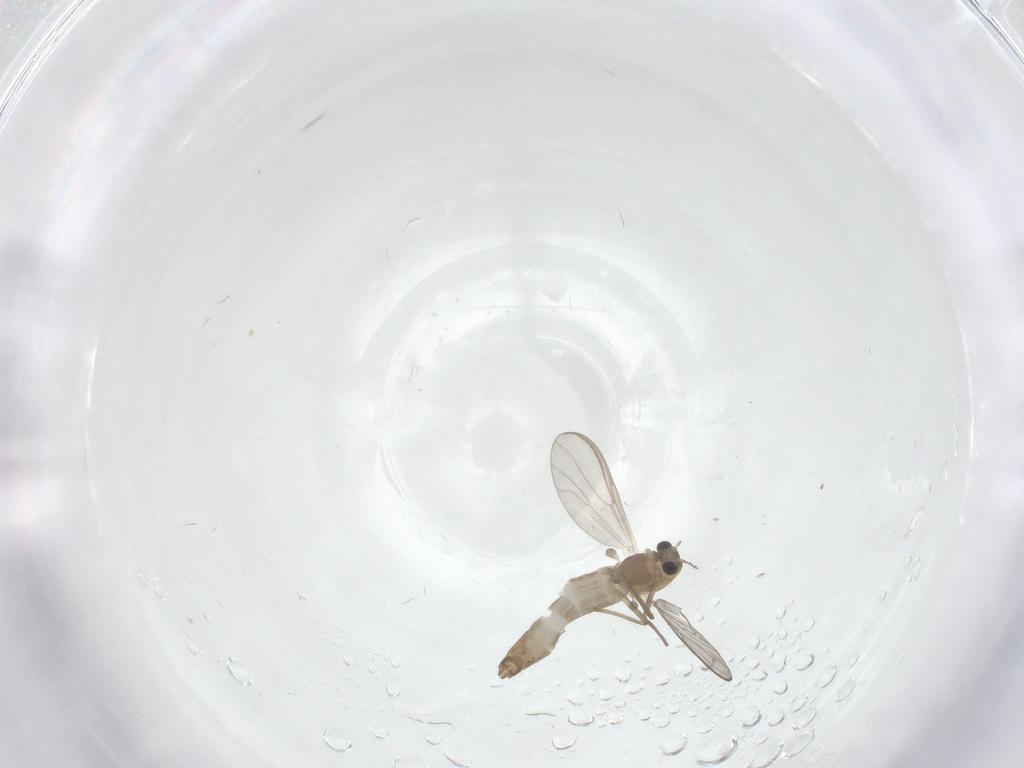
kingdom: Animalia
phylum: Arthropoda
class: Insecta
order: Diptera
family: Chironomidae
